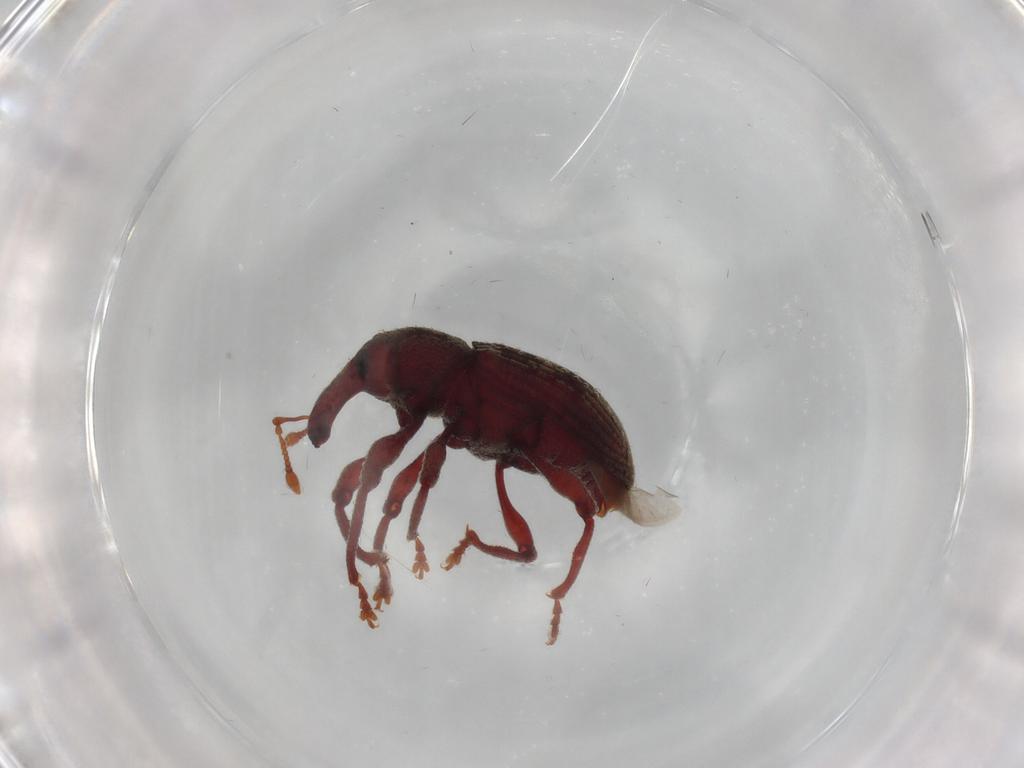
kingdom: Animalia
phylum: Arthropoda
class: Insecta
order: Coleoptera
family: Curculionidae
